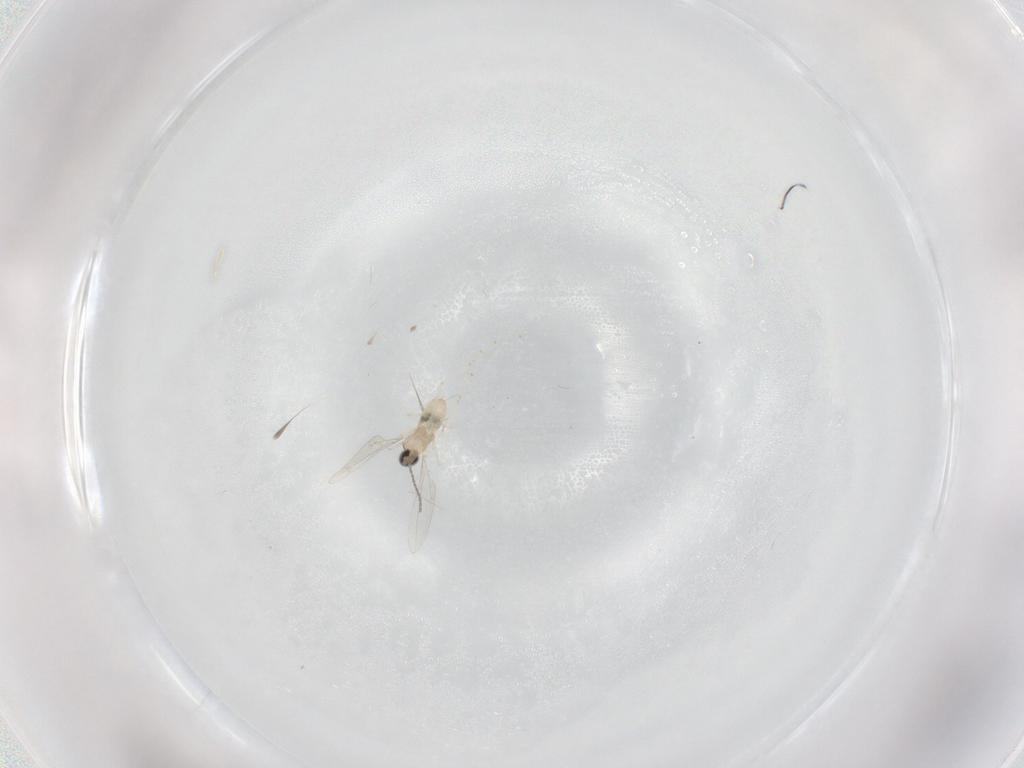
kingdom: Animalia
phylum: Arthropoda
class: Insecta
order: Diptera
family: Cecidomyiidae
